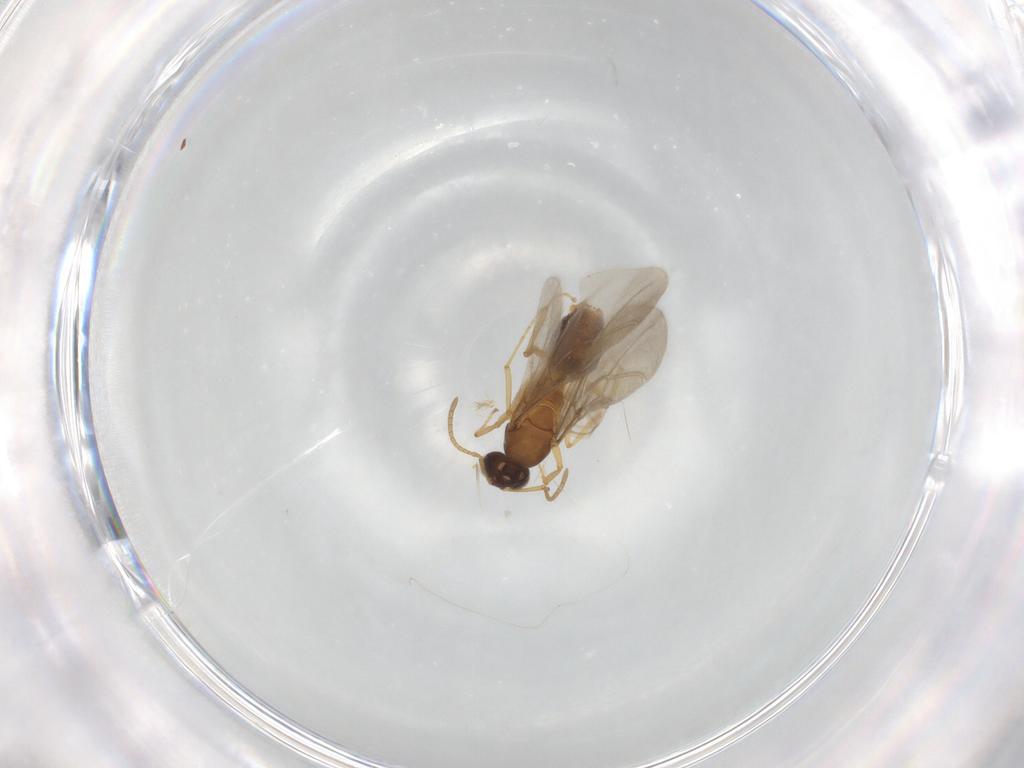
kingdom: Animalia
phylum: Arthropoda
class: Insecta
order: Hymenoptera
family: Formicidae
